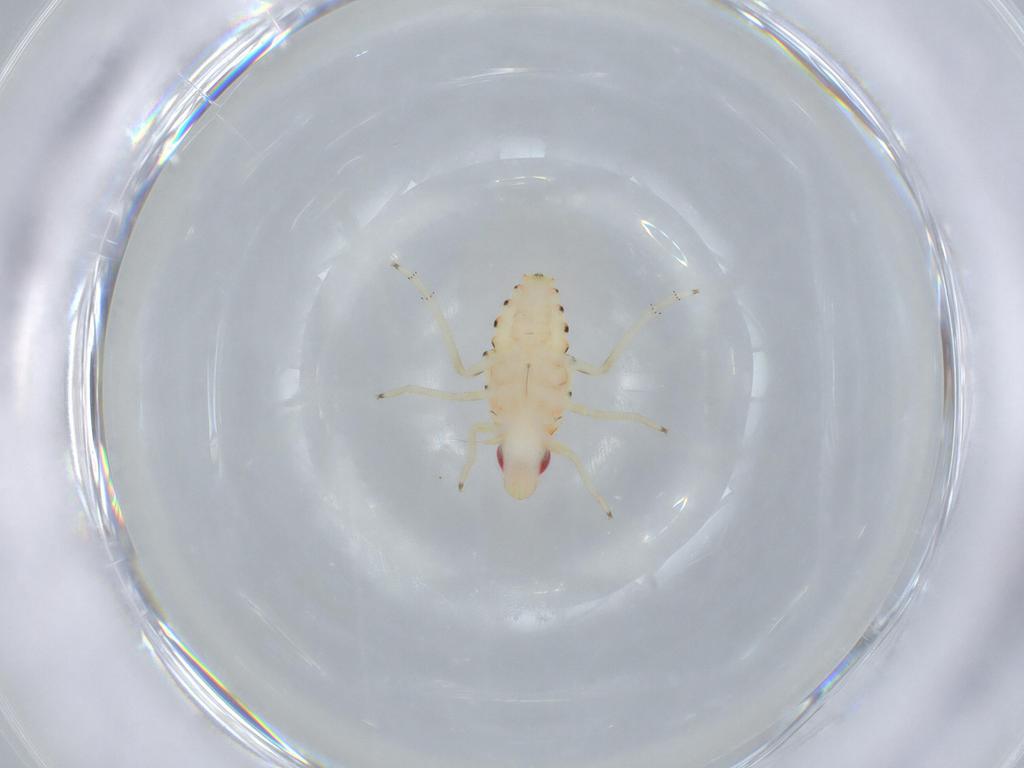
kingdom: Animalia
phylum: Arthropoda
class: Insecta
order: Hemiptera
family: Tropiduchidae
